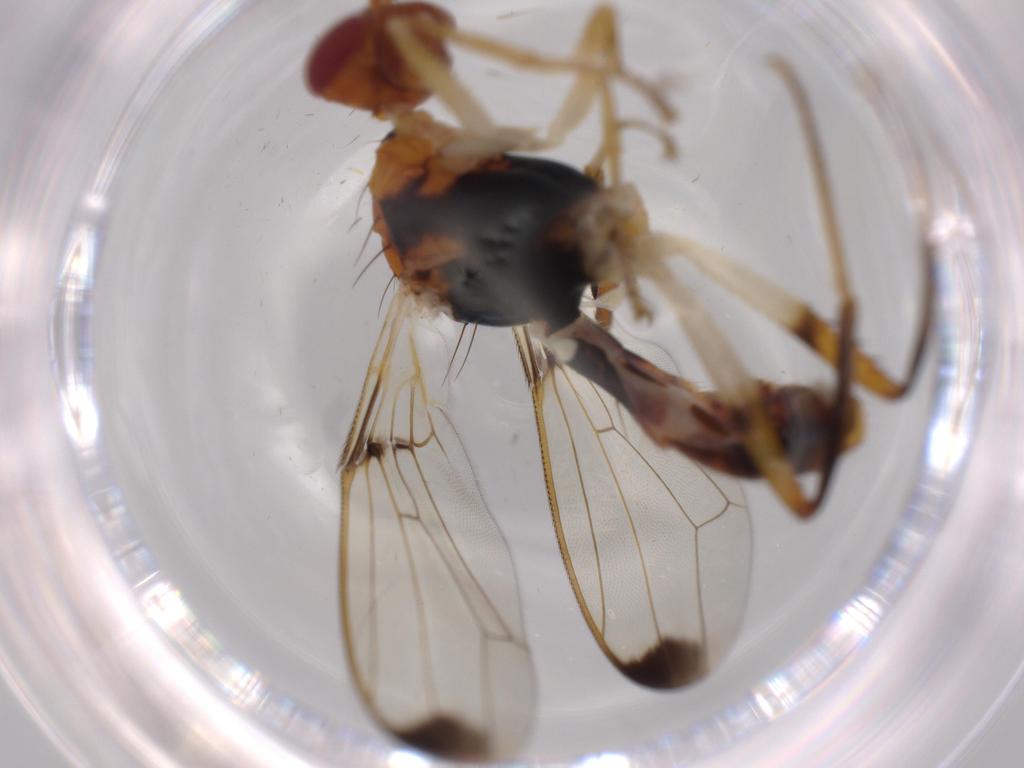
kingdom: Animalia
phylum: Arthropoda
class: Insecta
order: Diptera
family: Richardiidae
